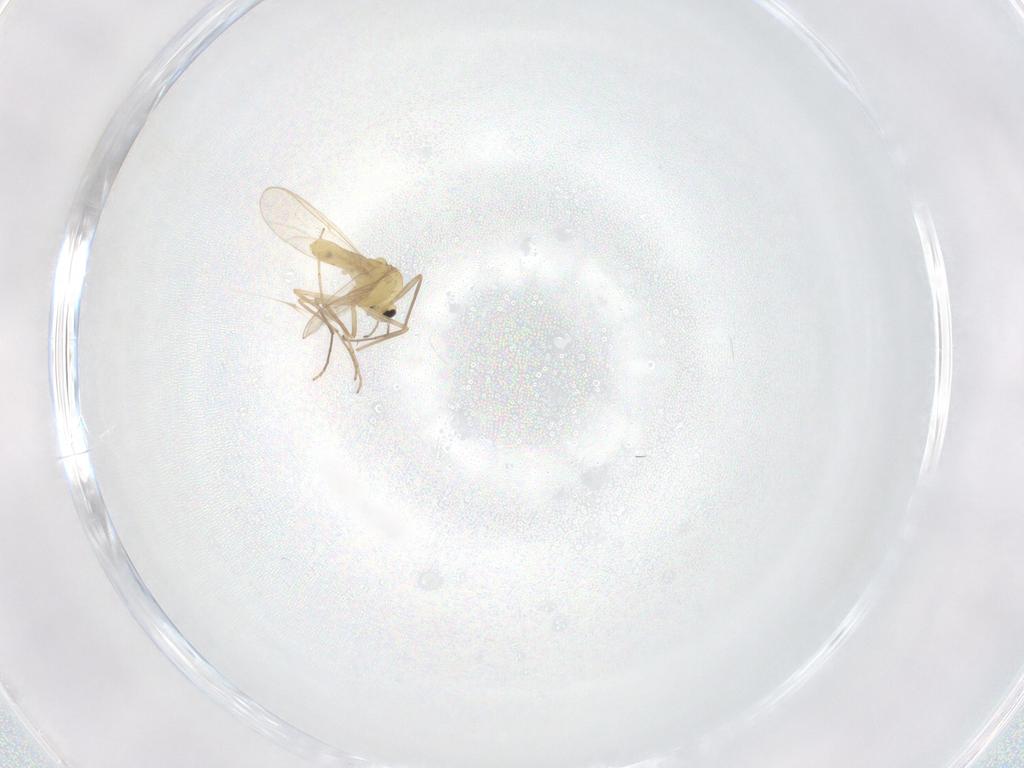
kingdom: Animalia
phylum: Arthropoda
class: Insecta
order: Diptera
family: Chironomidae
